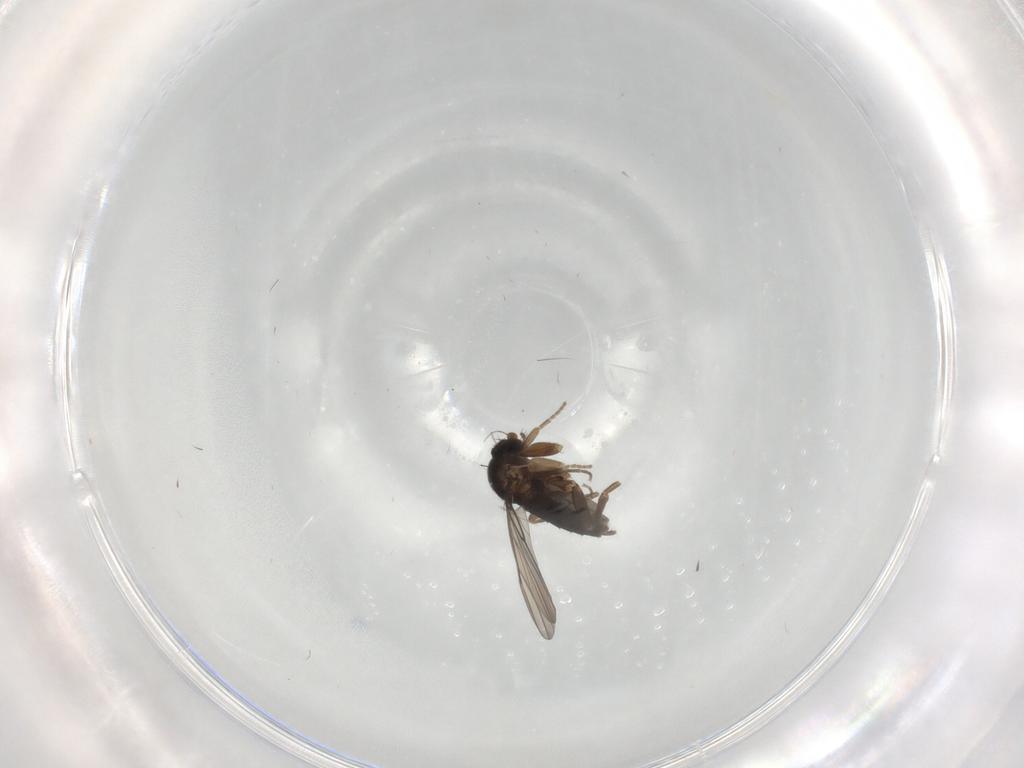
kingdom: Animalia
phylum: Arthropoda
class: Insecta
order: Diptera
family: Phoridae
